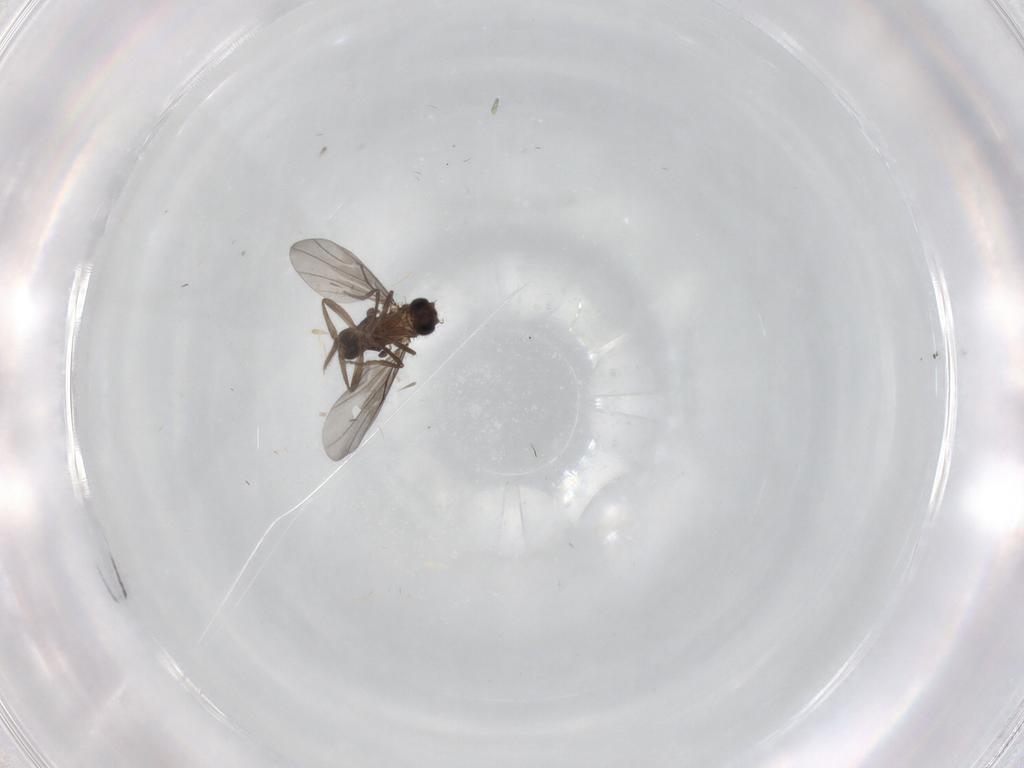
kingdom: Animalia
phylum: Arthropoda
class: Insecta
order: Diptera
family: Sciaridae
